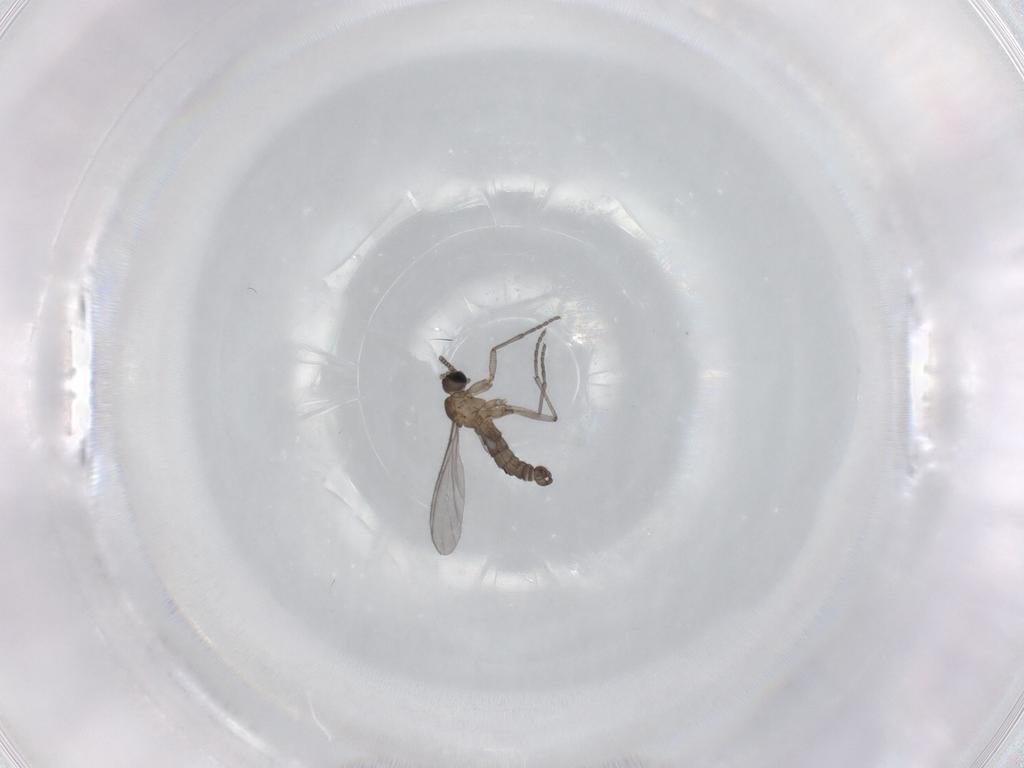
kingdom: Animalia
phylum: Arthropoda
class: Insecta
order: Diptera
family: Sciaridae
